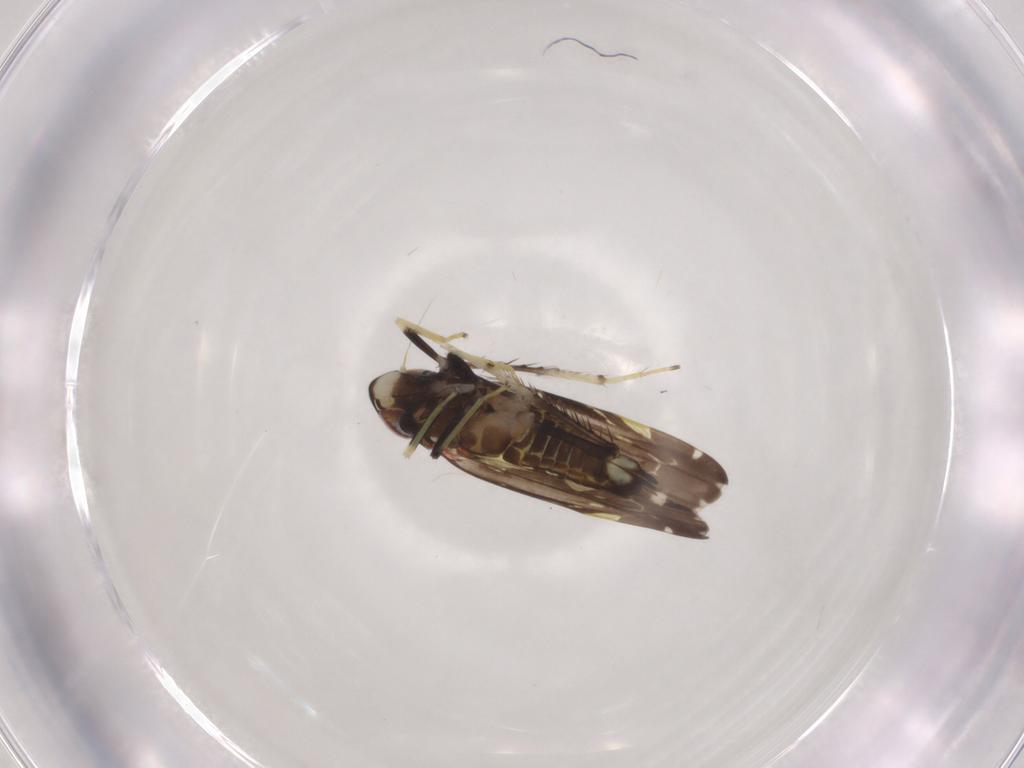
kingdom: Animalia
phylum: Arthropoda
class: Insecta
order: Hemiptera
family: Cicadellidae
